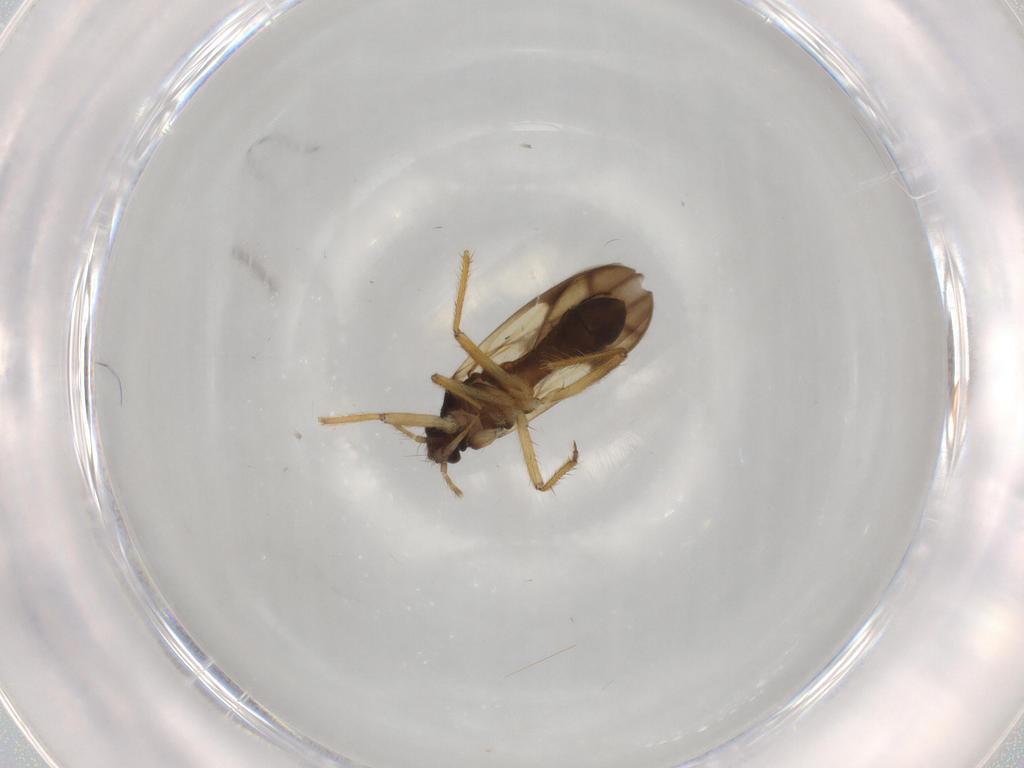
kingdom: Animalia
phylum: Arthropoda
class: Insecta
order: Hemiptera
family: Ceratocombidae
